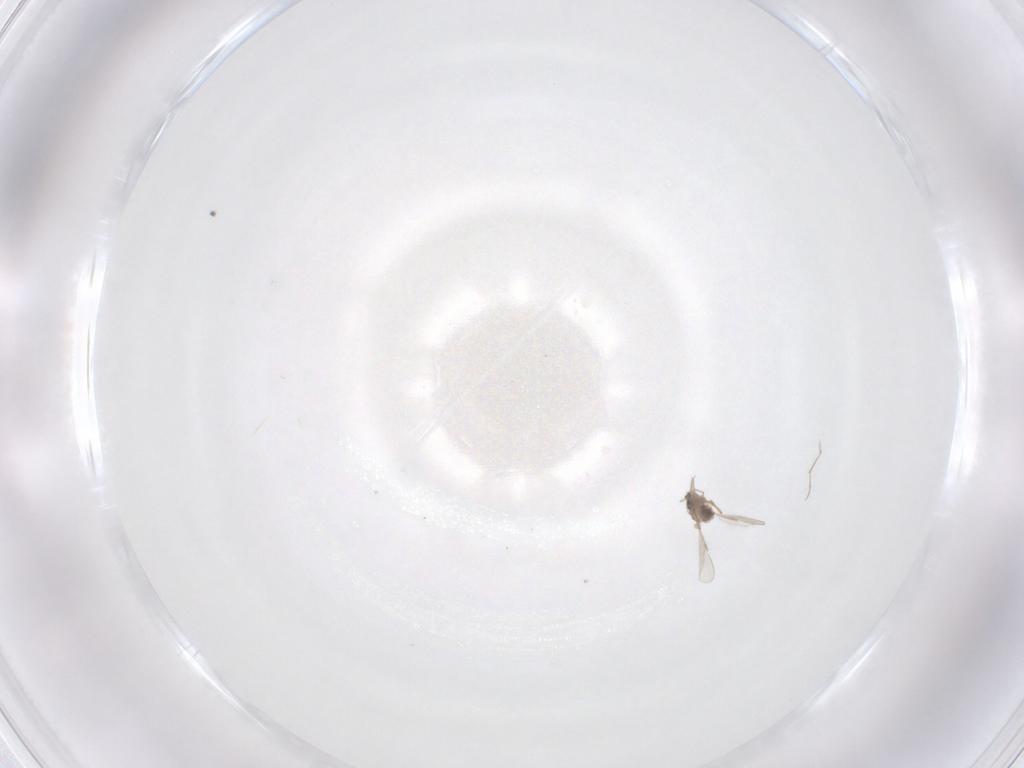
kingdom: Animalia
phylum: Arthropoda
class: Insecta
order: Diptera
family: Chironomidae
